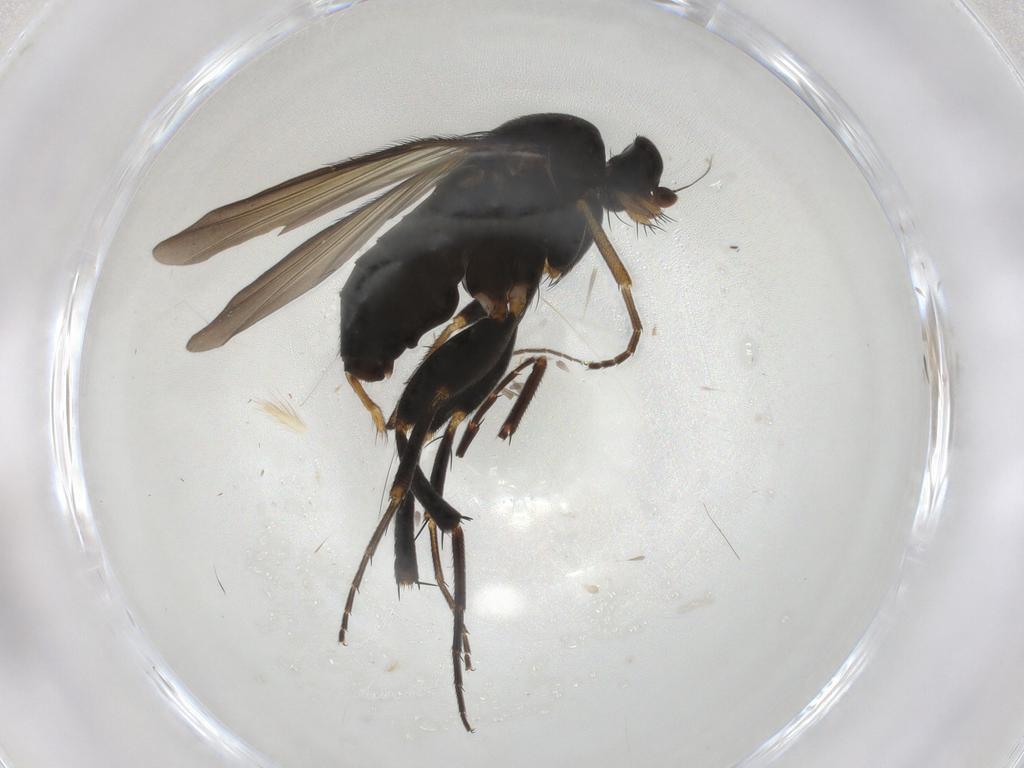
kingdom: Animalia
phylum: Arthropoda
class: Insecta
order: Diptera
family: Phoridae
